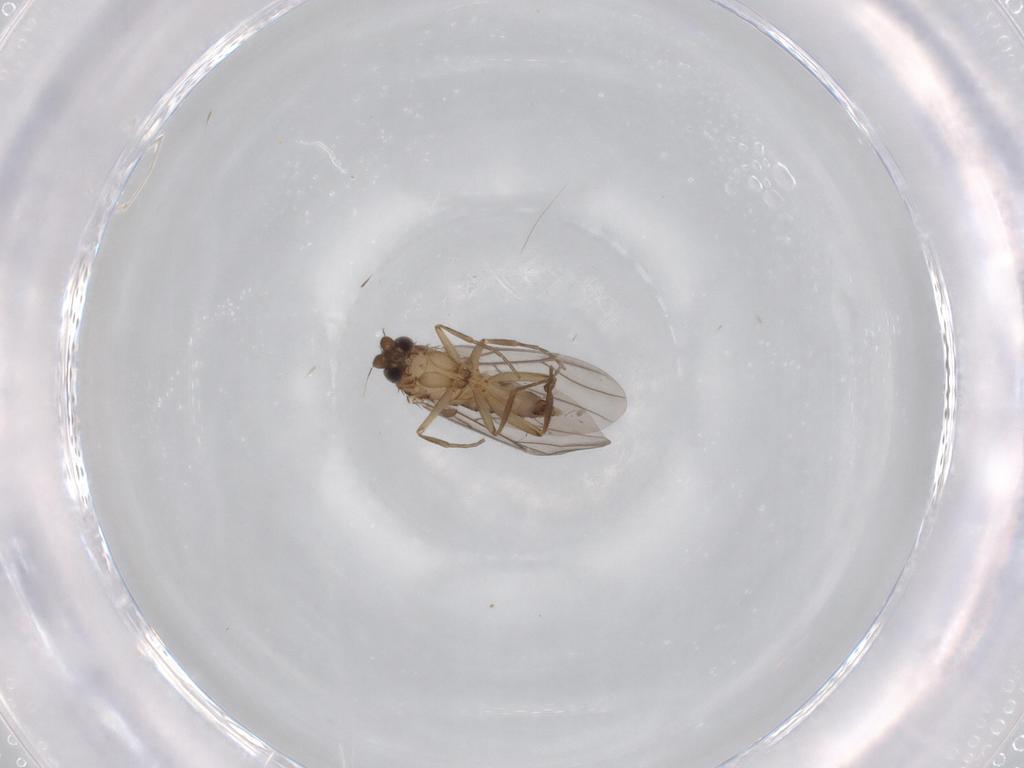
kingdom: Animalia
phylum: Arthropoda
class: Insecta
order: Diptera
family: Phoridae
